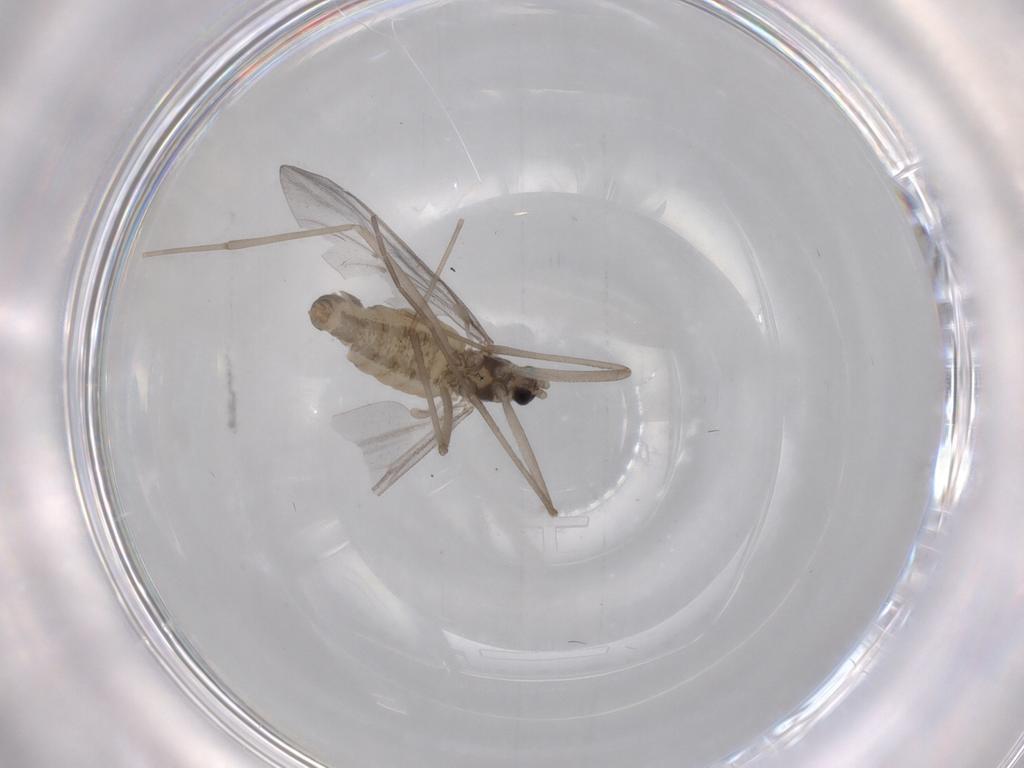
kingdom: Animalia
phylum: Arthropoda
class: Insecta
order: Diptera
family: Cecidomyiidae
